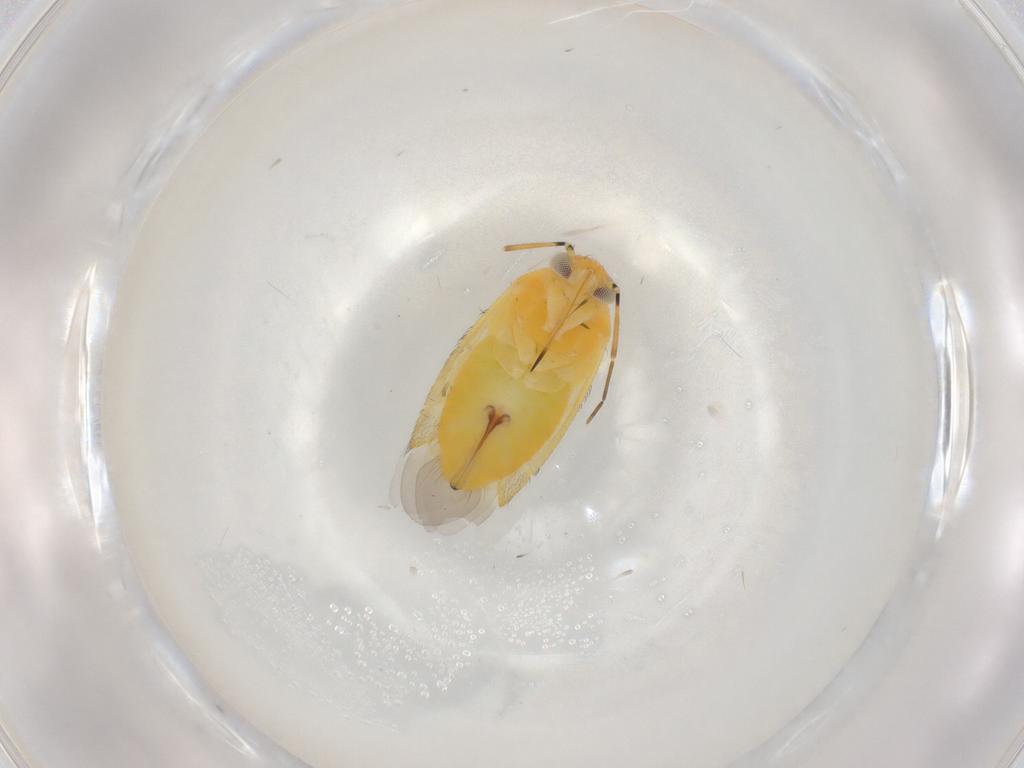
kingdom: Animalia
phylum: Arthropoda
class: Insecta
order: Hemiptera
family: Miridae
